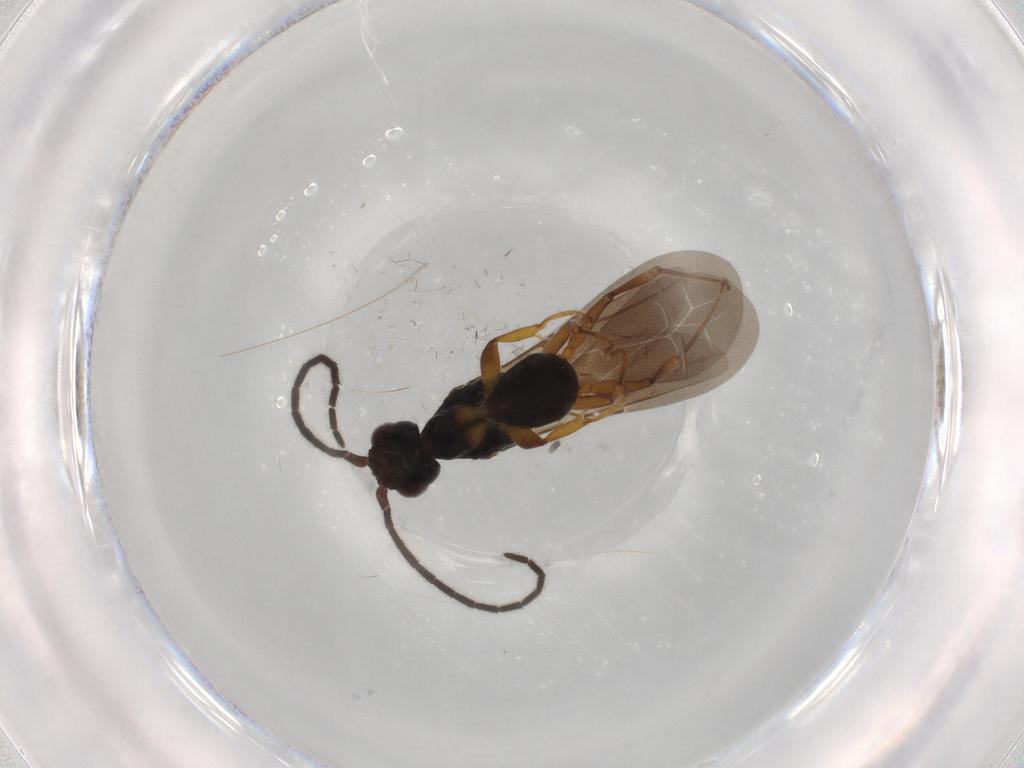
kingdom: Animalia
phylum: Arthropoda
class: Insecta
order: Hymenoptera
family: Bethylidae
